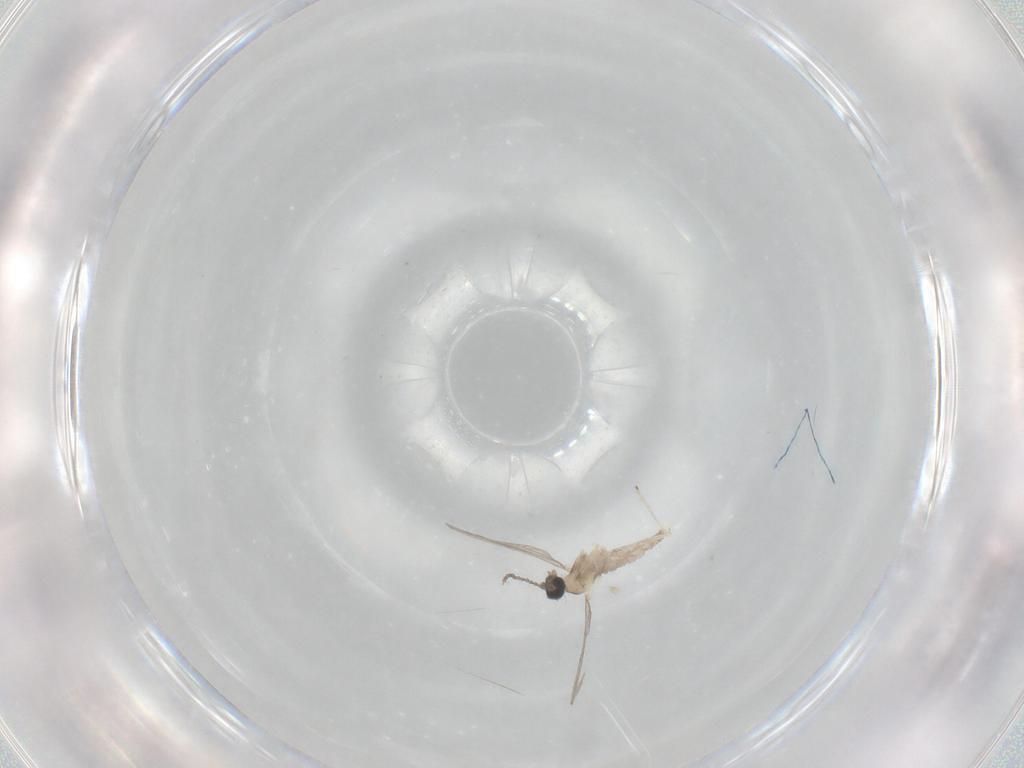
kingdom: Animalia
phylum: Arthropoda
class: Insecta
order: Diptera
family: Cecidomyiidae
